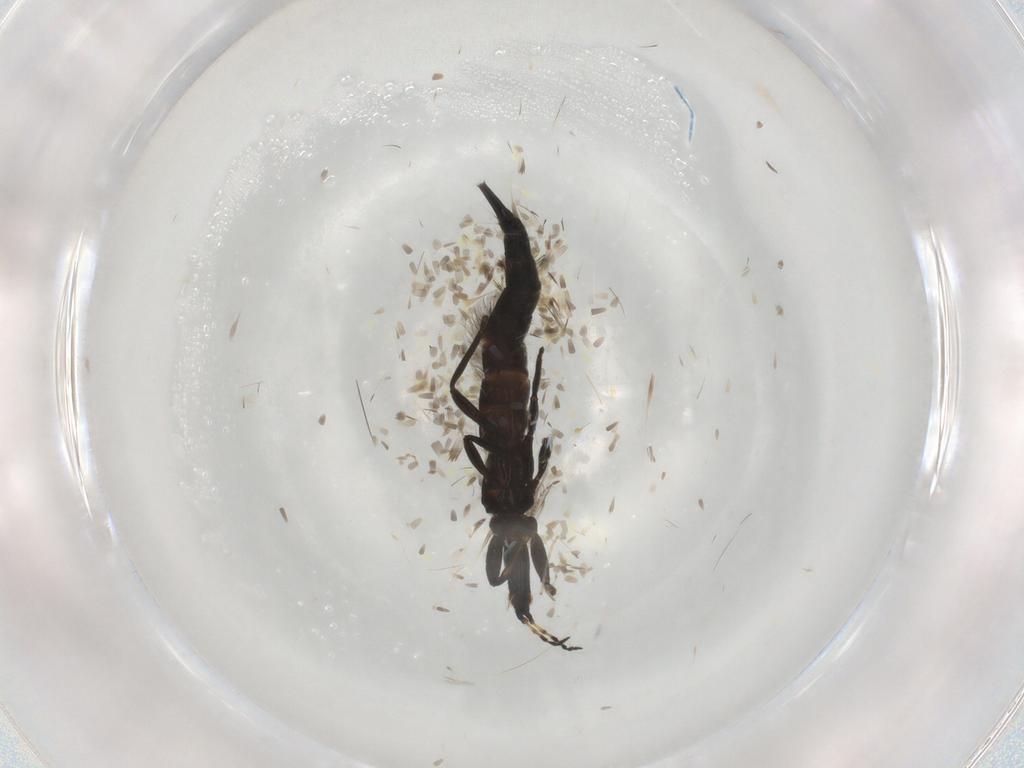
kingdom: Animalia
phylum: Arthropoda
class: Insecta
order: Thysanoptera
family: Phlaeothripidae
